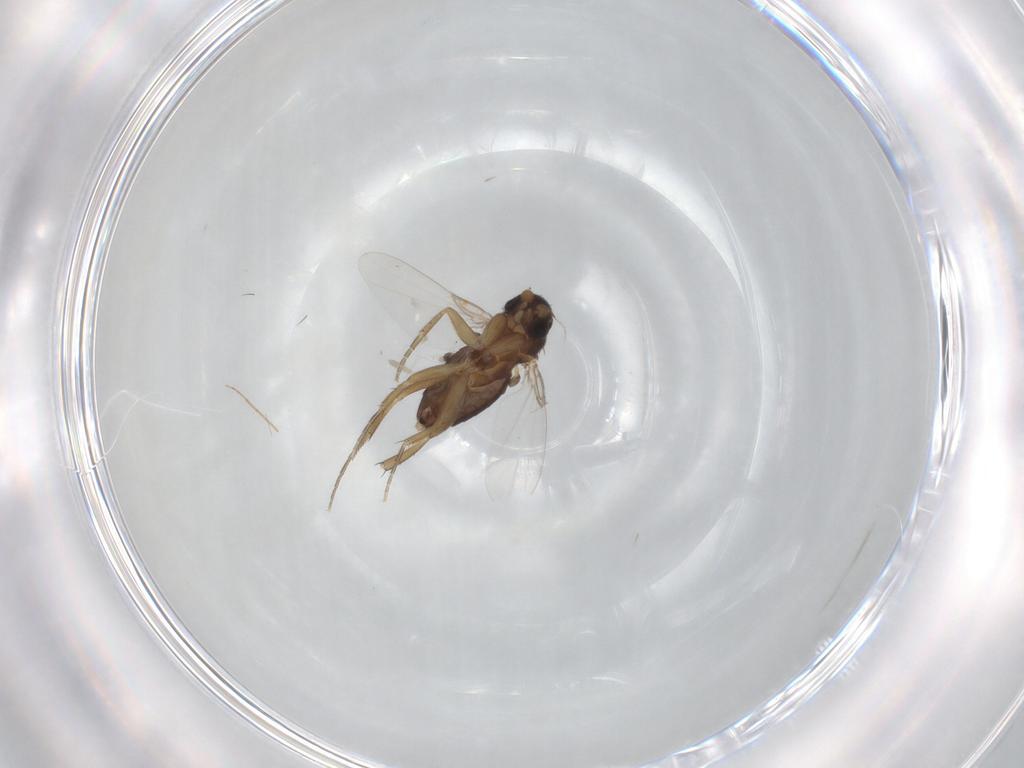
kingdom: Animalia
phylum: Arthropoda
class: Insecta
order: Diptera
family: Phoridae
